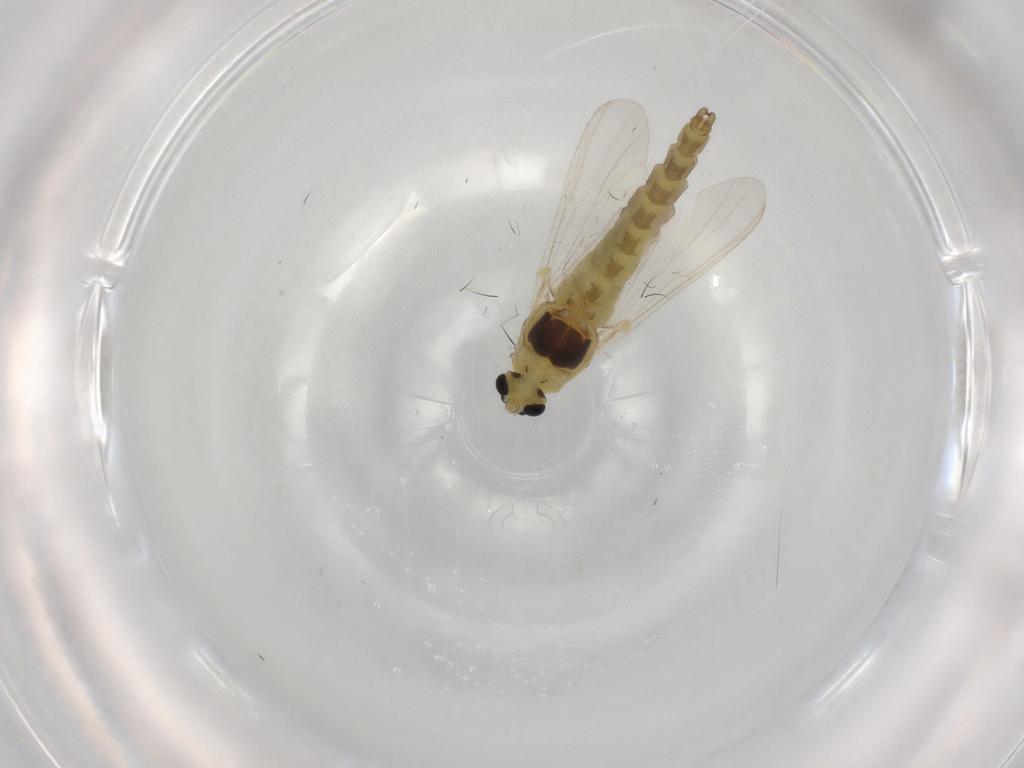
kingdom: Animalia
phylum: Arthropoda
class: Insecta
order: Diptera
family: Chironomidae
